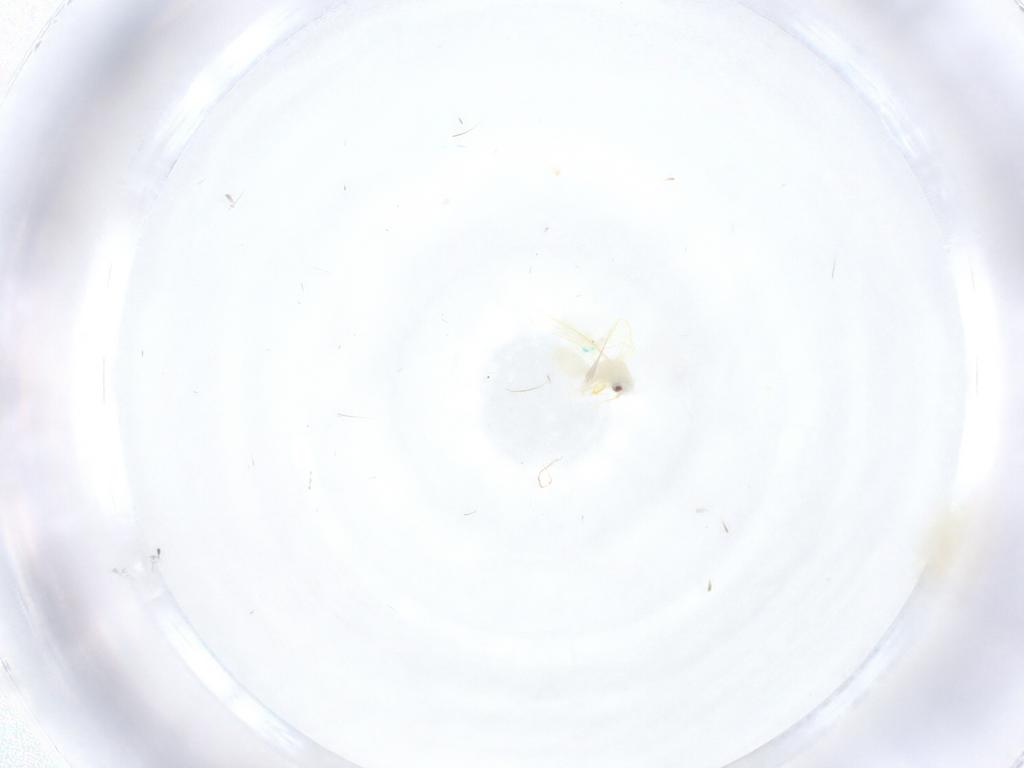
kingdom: Animalia
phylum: Arthropoda
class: Insecta
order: Hemiptera
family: Aleyrodidae
